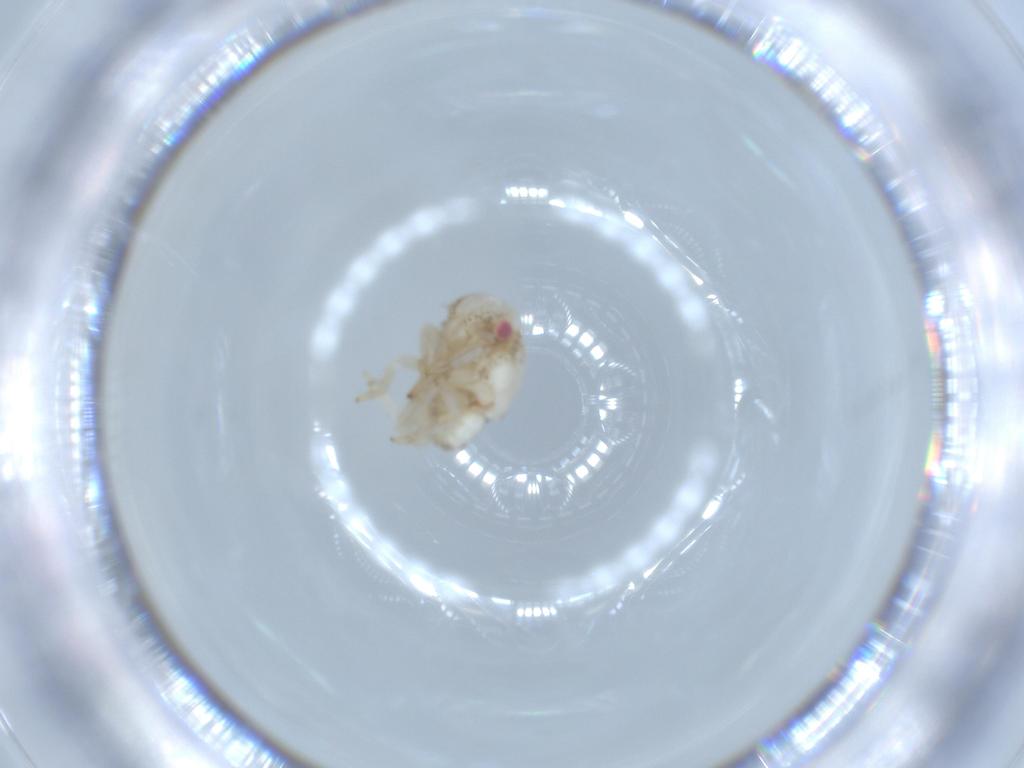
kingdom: Animalia
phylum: Arthropoda
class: Insecta
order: Hemiptera
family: Acanaloniidae
